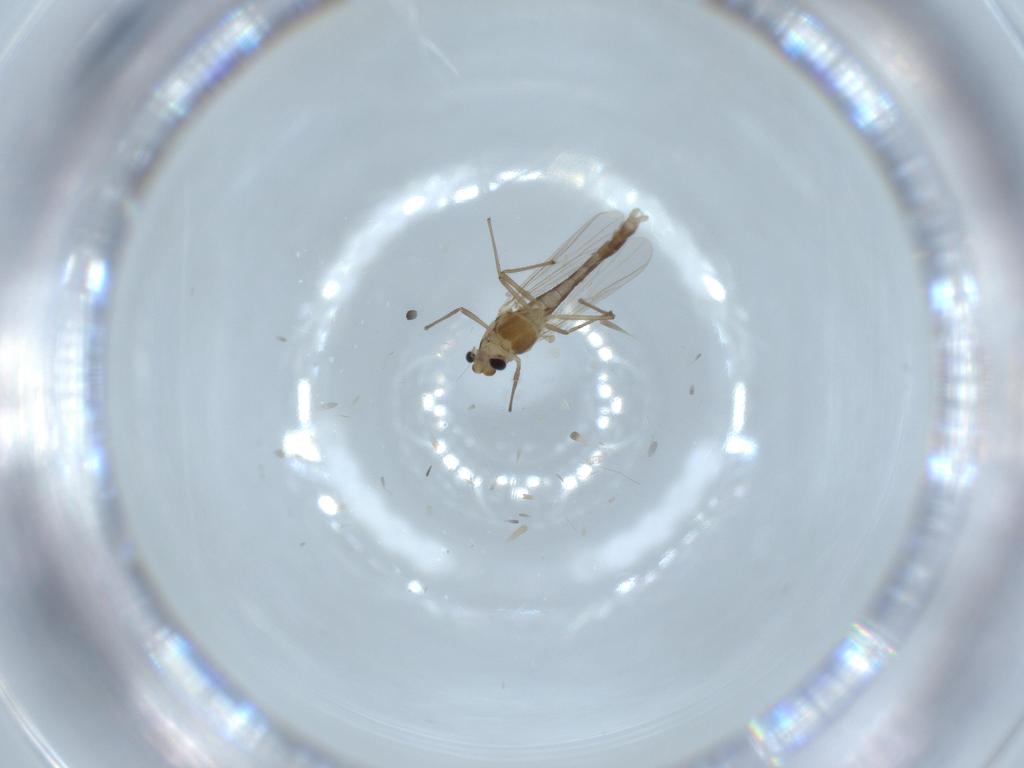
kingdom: Animalia
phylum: Arthropoda
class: Insecta
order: Diptera
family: Chironomidae
